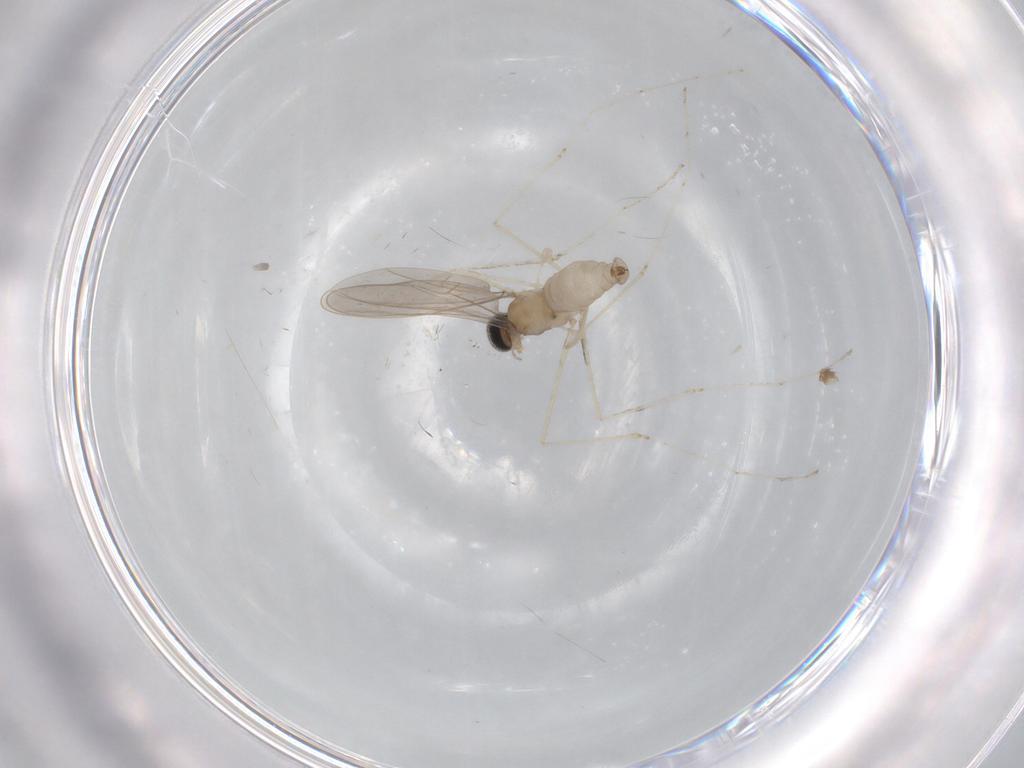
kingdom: Animalia
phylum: Arthropoda
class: Insecta
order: Diptera
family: Cecidomyiidae
